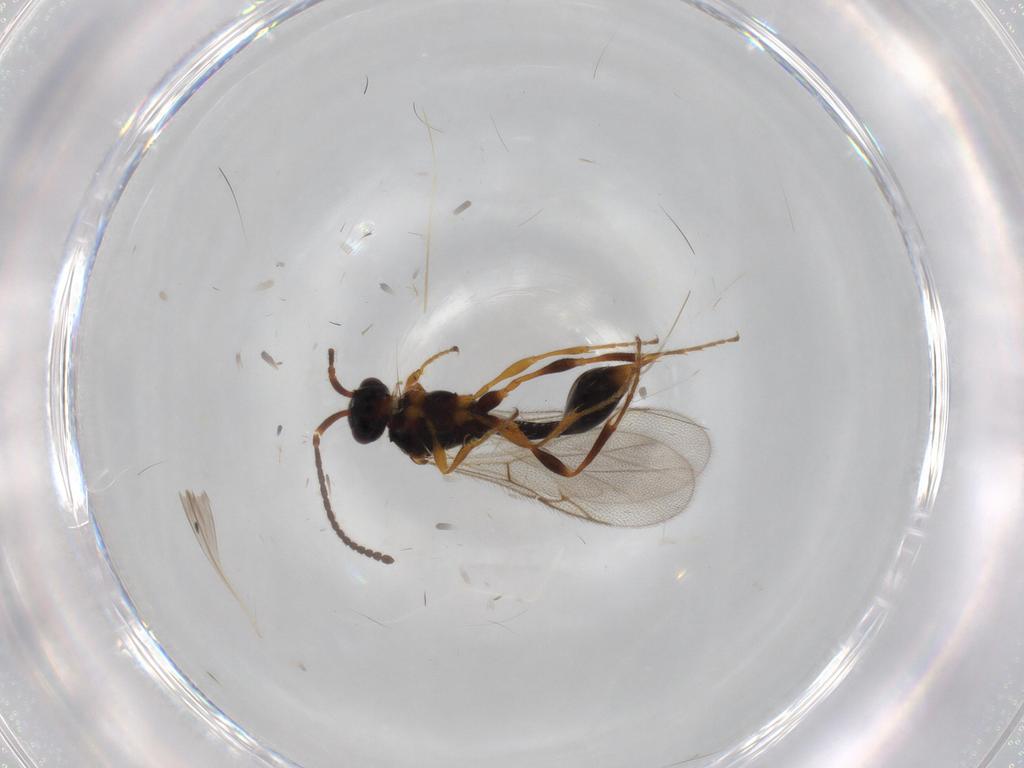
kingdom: Animalia
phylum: Arthropoda
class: Insecta
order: Hymenoptera
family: Diapriidae
